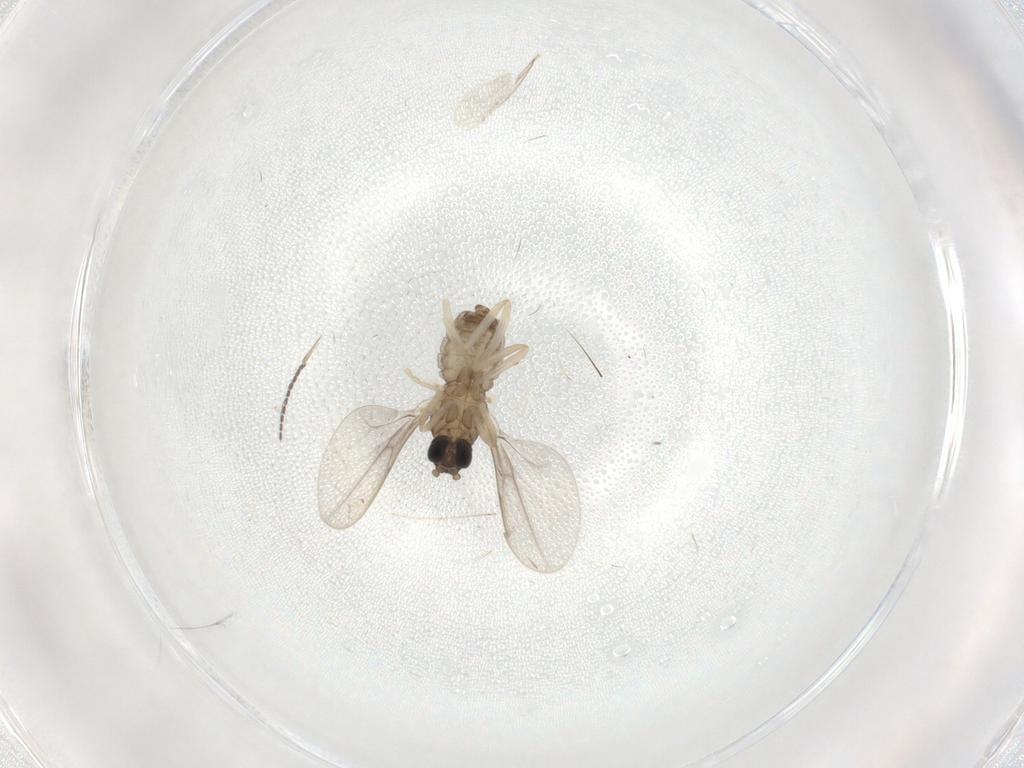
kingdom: Animalia
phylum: Arthropoda
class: Insecta
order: Diptera
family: Cecidomyiidae
